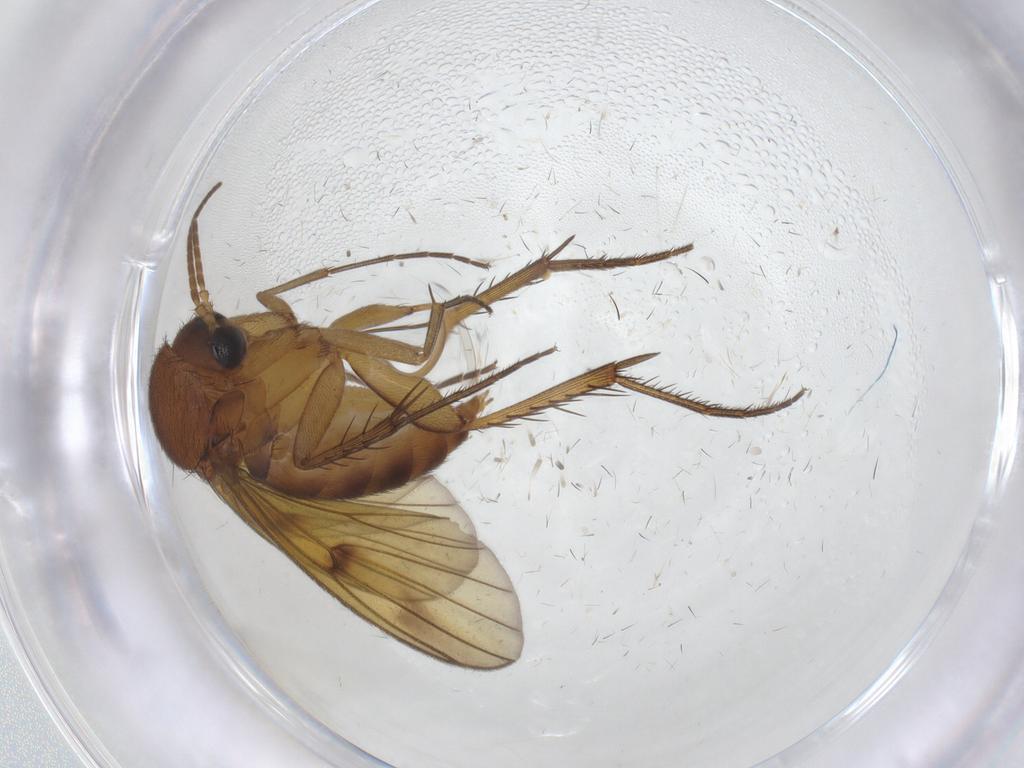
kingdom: Animalia
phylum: Arthropoda
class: Insecta
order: Diptera
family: Mycetophilidae
